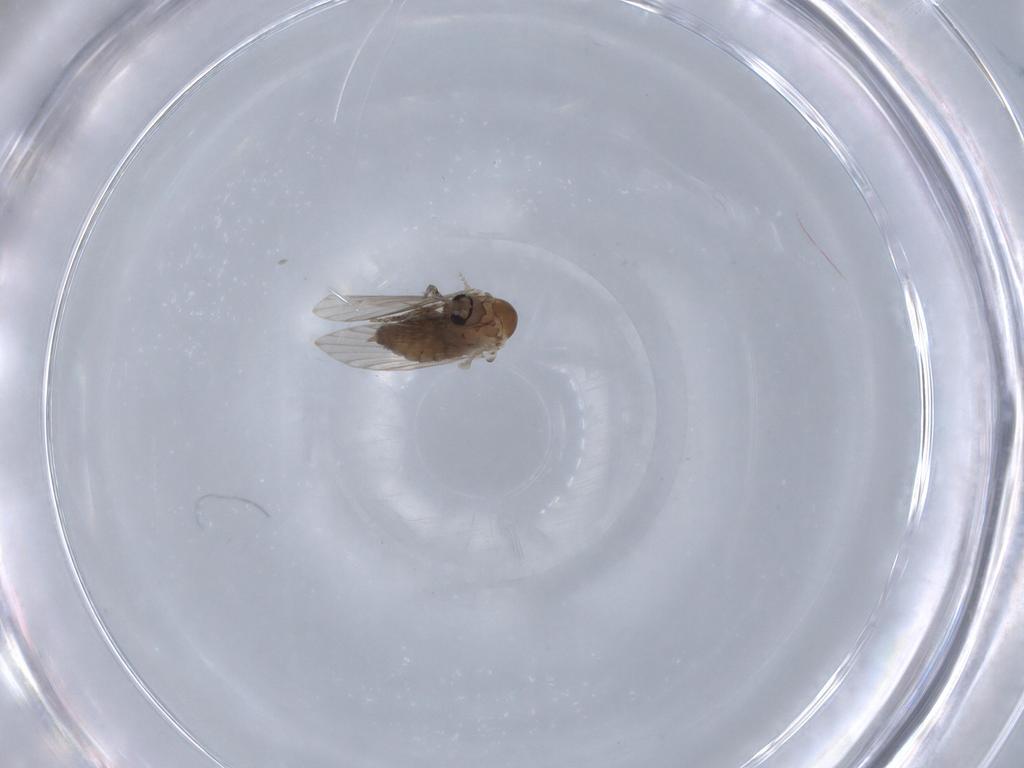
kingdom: Animalia
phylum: Arthropoda
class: Insecta
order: Diptera
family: Psychodidae
